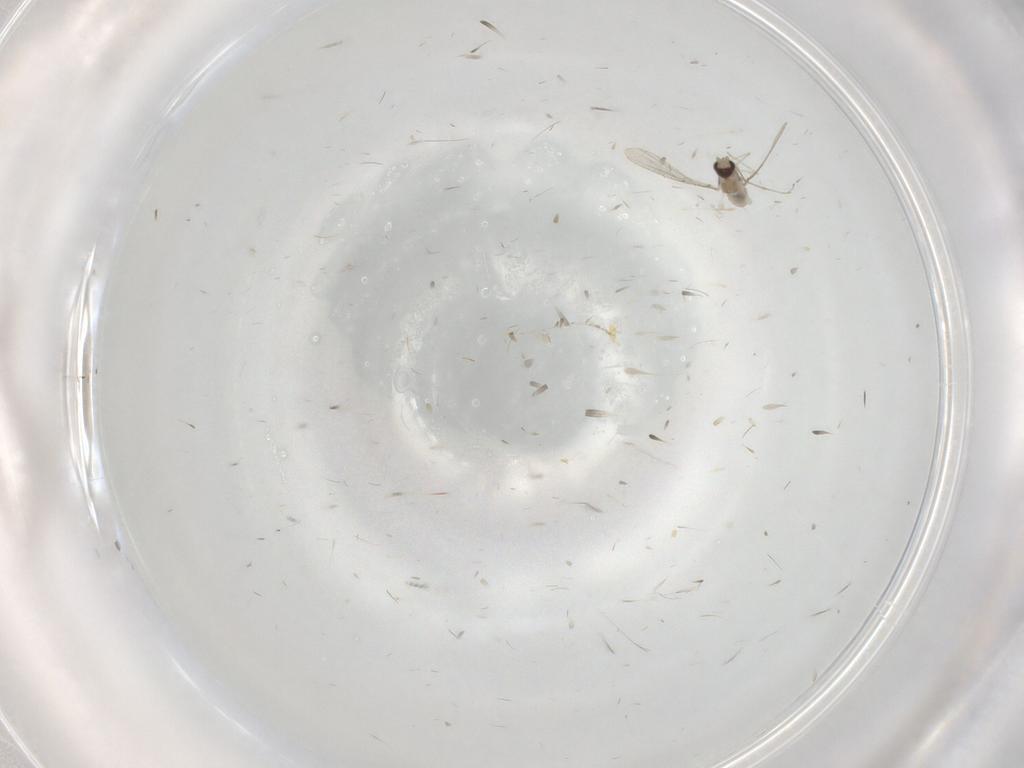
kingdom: Animalia
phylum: Arthropoda
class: Insecta
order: Diptera
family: Cecidomyiidae
